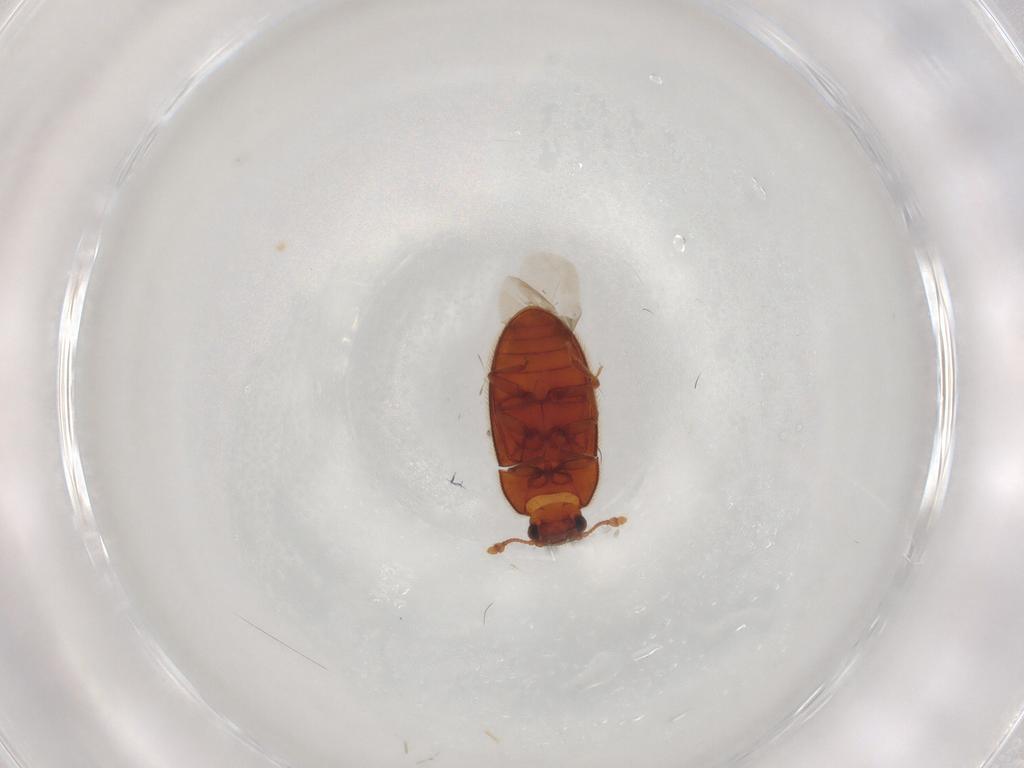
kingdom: Animalia
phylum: Arthropoda
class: Insecta
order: Coleoptera
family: Biphyllidae
